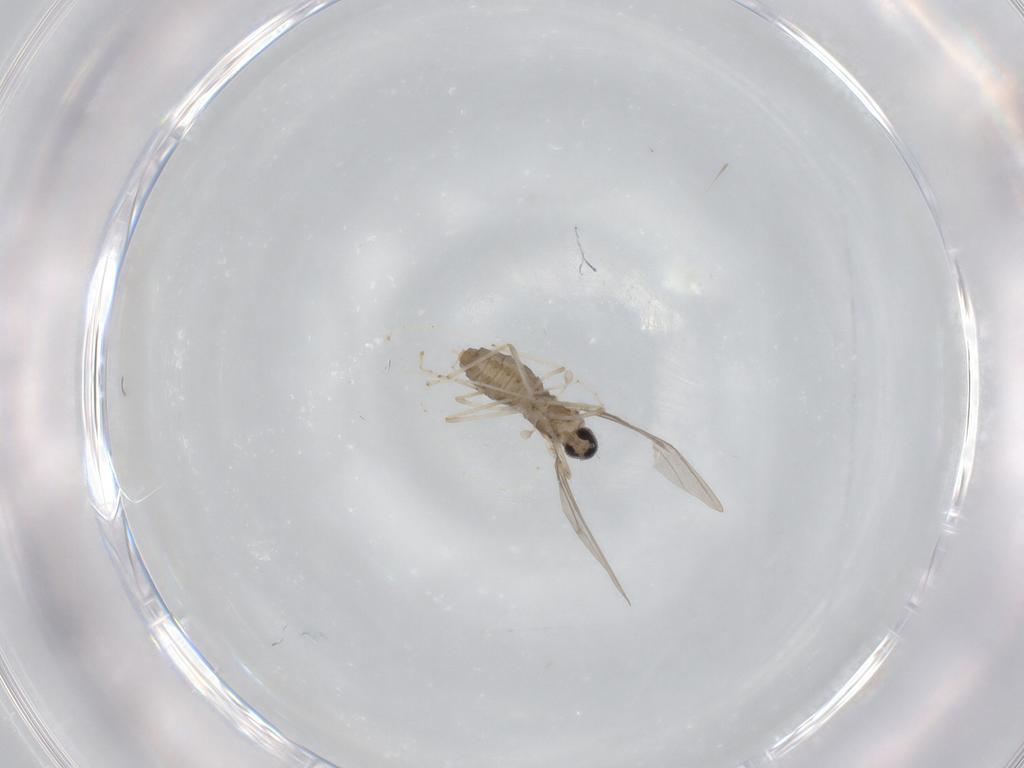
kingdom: Animalia
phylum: Arthropoda
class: Insecta
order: Diptera
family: Cecidomyiidae
